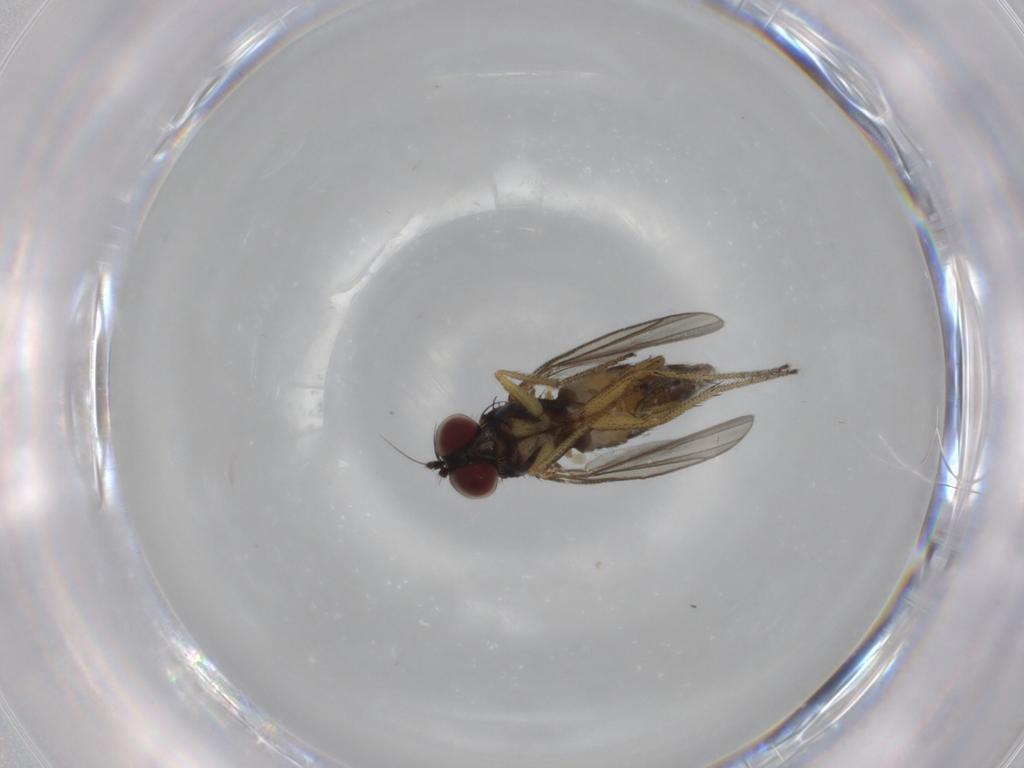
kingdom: Animalia
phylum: Arthropoda
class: Insecta
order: Diptera
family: Dolichopodidae
